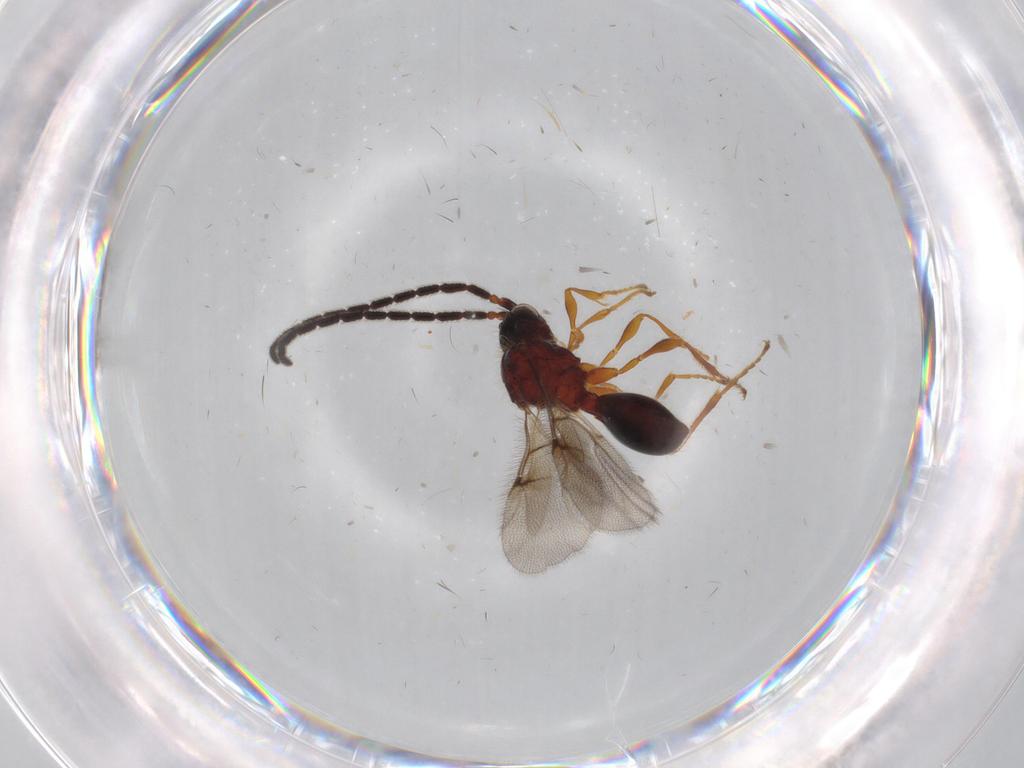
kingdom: Animalia
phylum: Arthropoda
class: Insecta
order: Hymenoptera
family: Diapriidae
